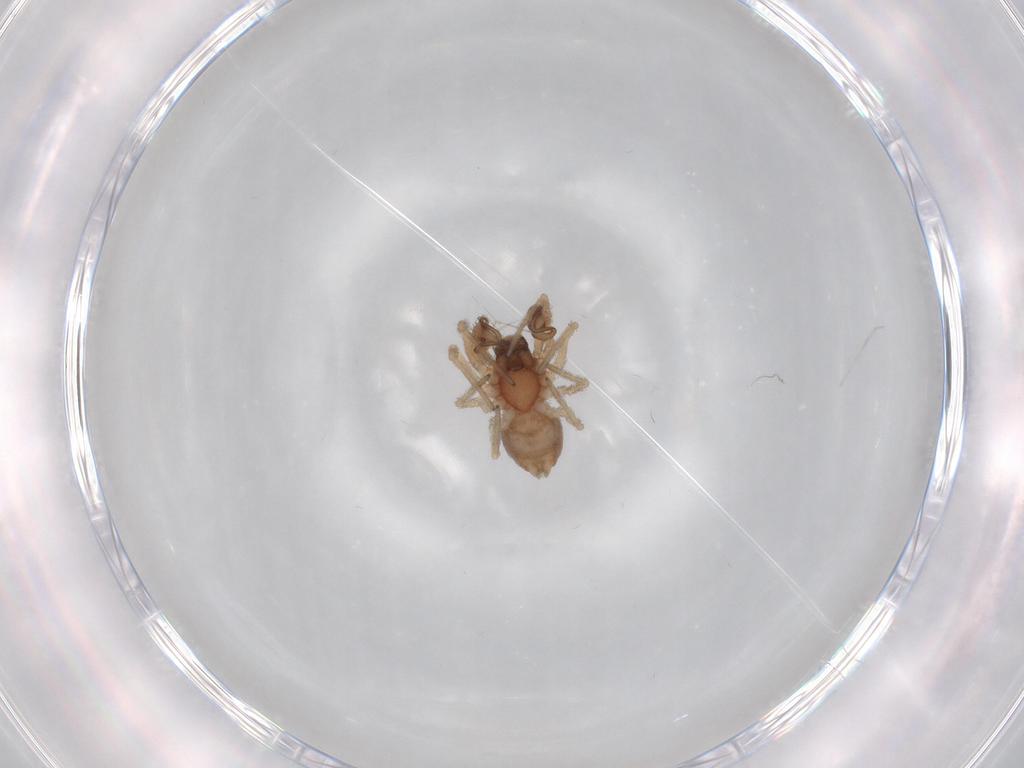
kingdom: Animalia
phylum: Arthropoda
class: Arachnida
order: Araneae
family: Dictynidae
